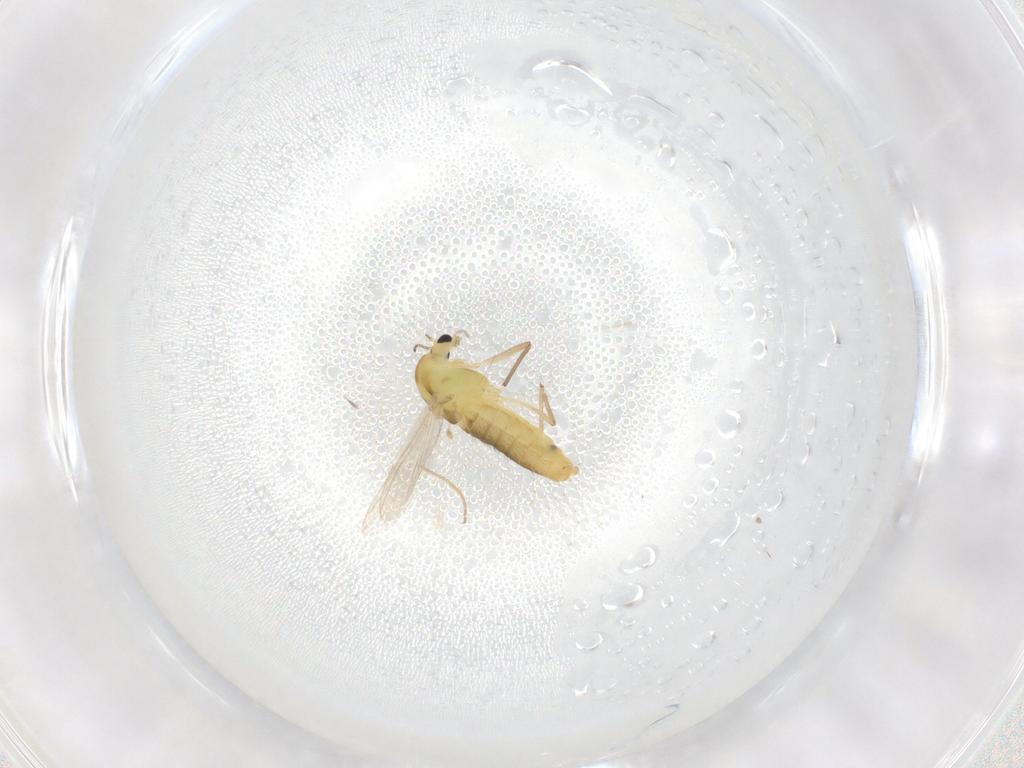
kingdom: Animalia
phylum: Arthropoda
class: Insecta
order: Diptera
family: Chironomidae
